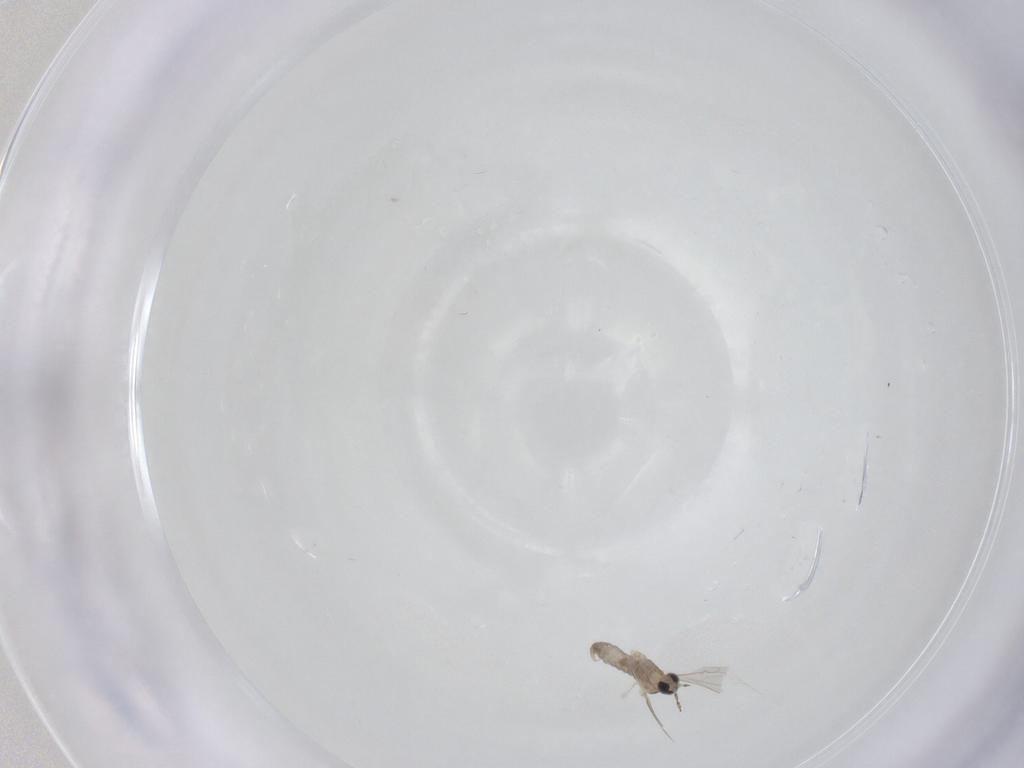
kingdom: Animalia
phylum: Arthropoda
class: Insecta
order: Diptera
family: Cecidomyiidae
